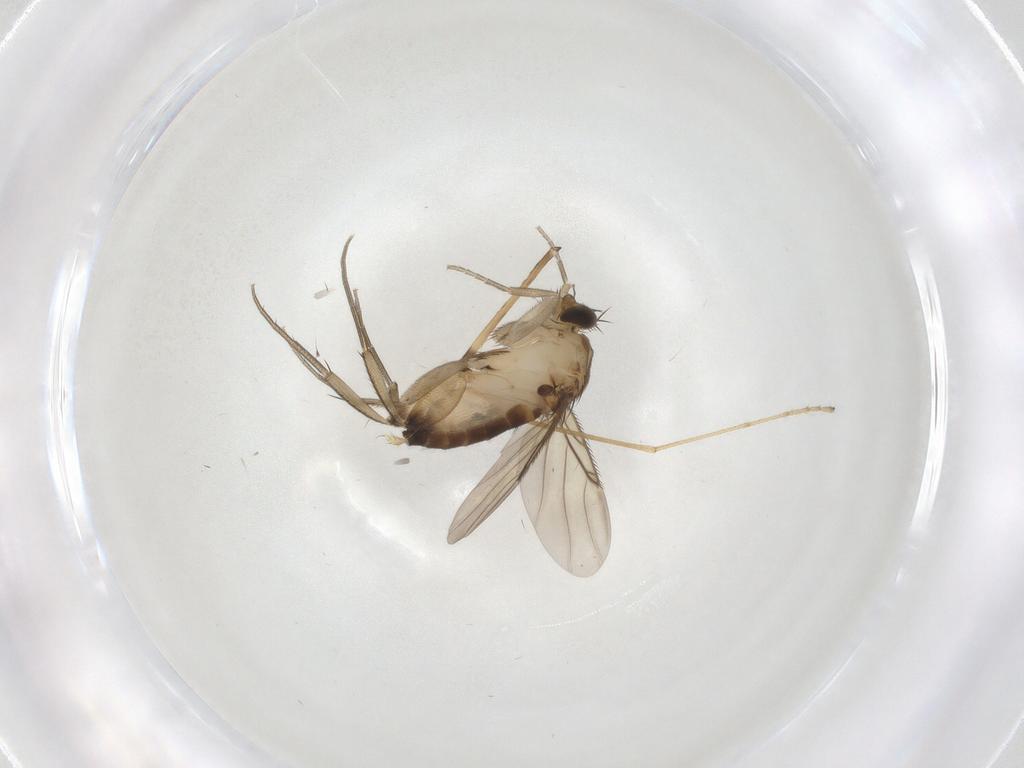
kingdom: Animalia
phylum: Arthropoda
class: Insecta
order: Diptera
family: Phoridae
